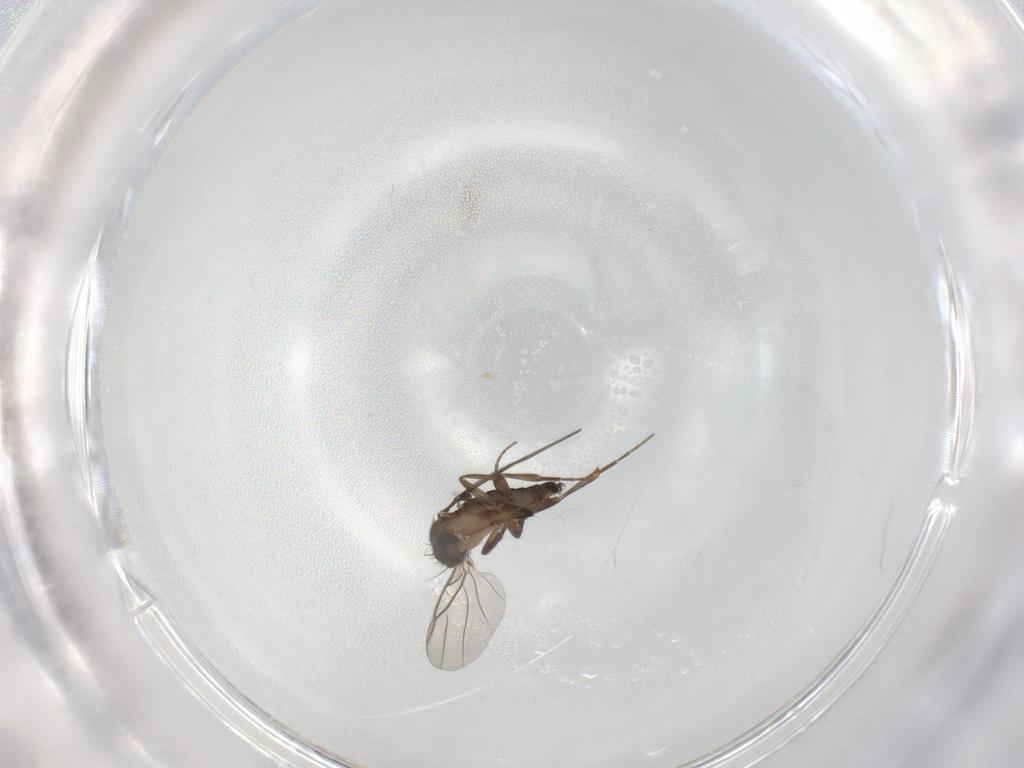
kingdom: Animalia
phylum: Arthropoda
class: Insecta
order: Diptera
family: Phoridae
